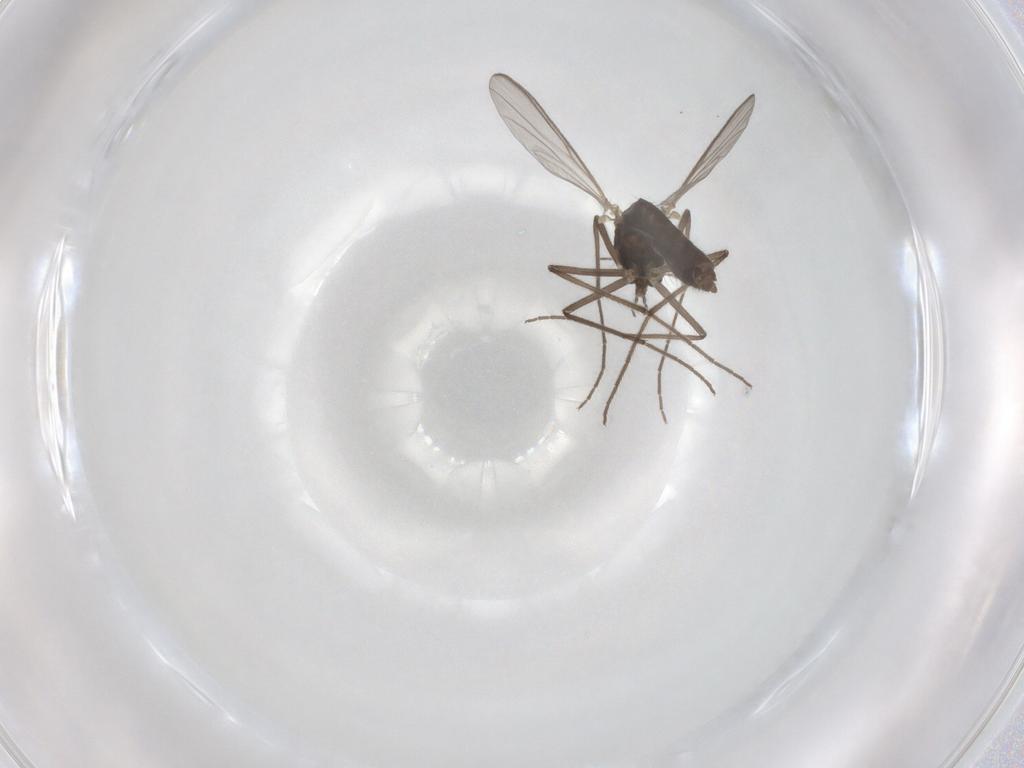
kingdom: Animalia
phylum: Arthropoda
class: Insecta
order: Diptera
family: Chironomidae
